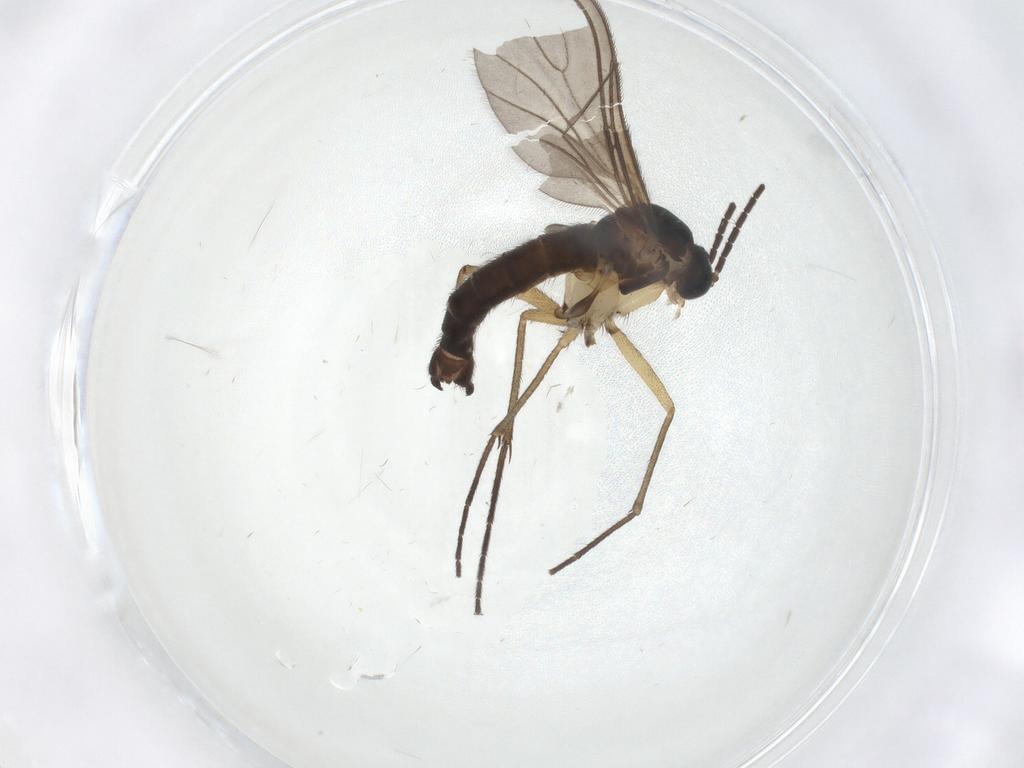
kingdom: Animalia
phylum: Arthropoda
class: Insecta
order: Diptera
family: Sciaridae
